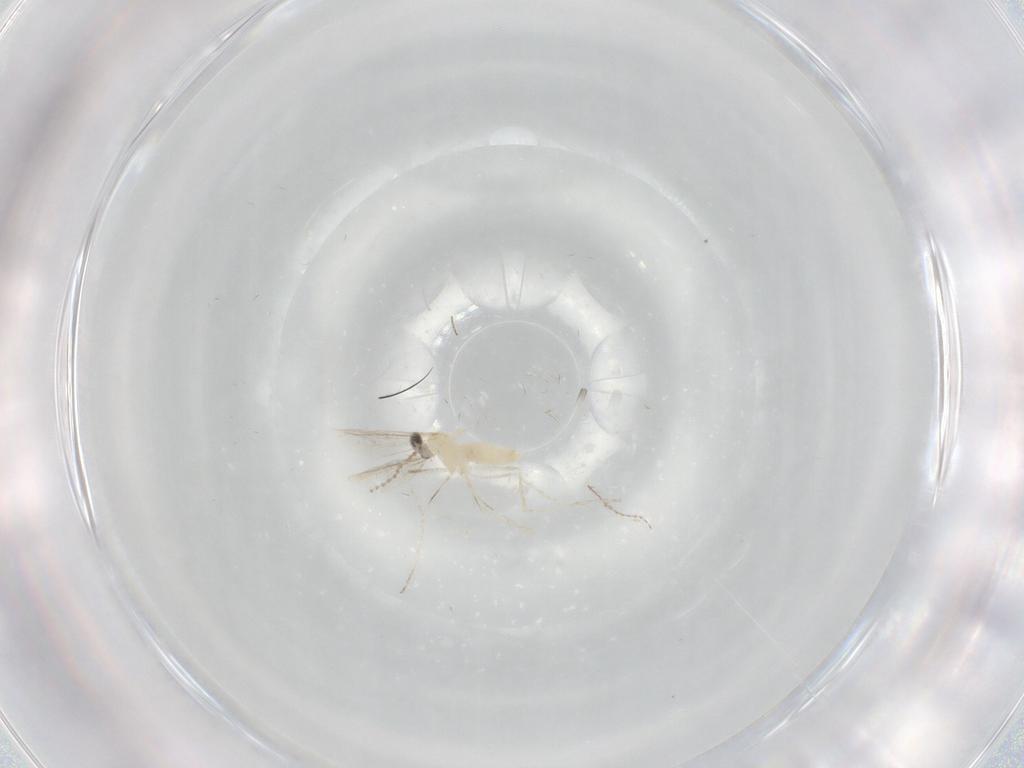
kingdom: Animalia
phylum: Arthropoda
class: Insecta
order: Diptera
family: Cecidomyiidae
